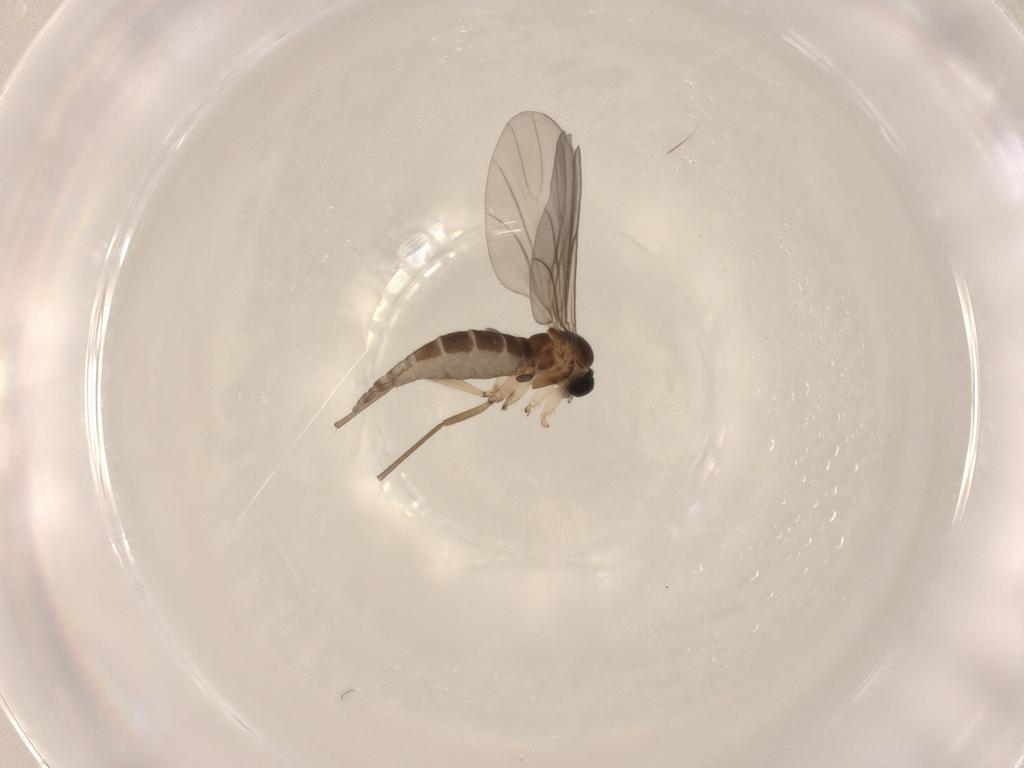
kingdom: Animalia
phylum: Arthropoda
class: Insecta
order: Diptera
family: Sciaridae
